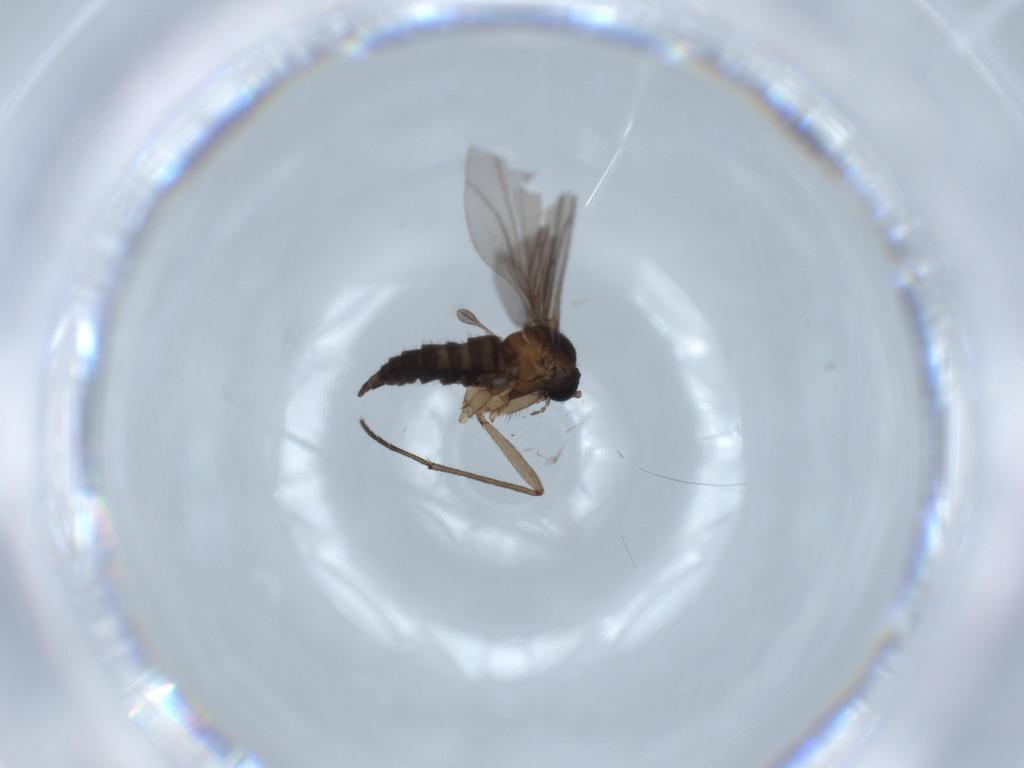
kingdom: Animalia
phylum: Arthropoda
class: Insecta
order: Diptera
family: Sciaridae
